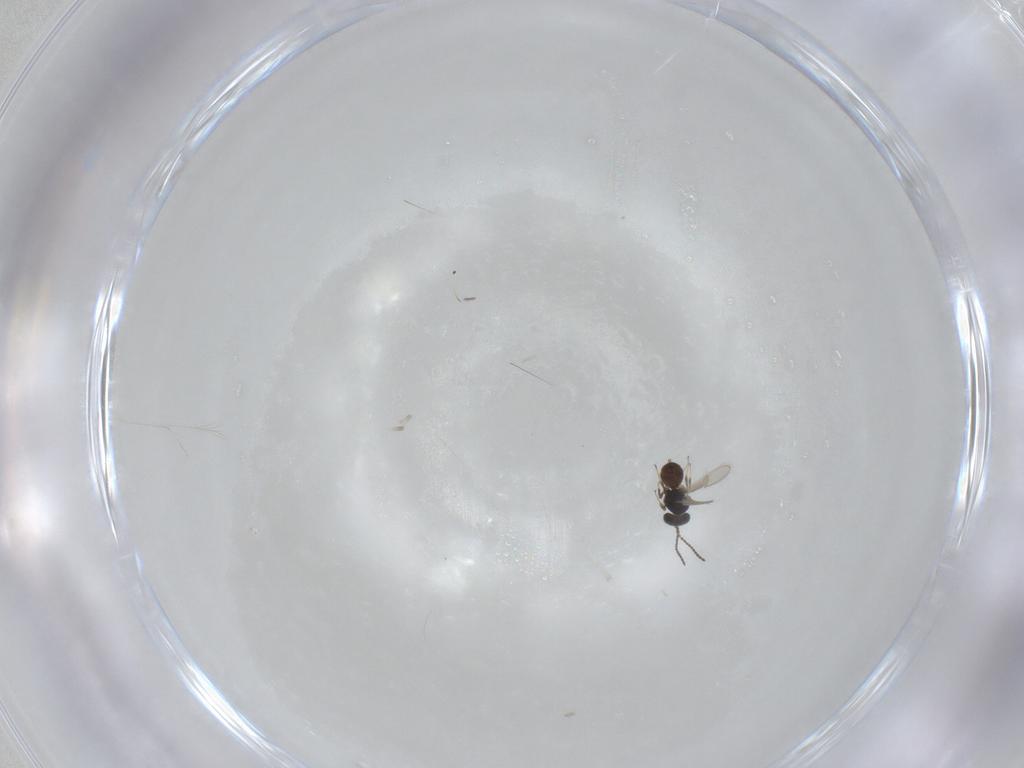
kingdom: Animalia
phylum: Arthropoda
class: Insecta
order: Hymenoptera
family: Scelionidae
